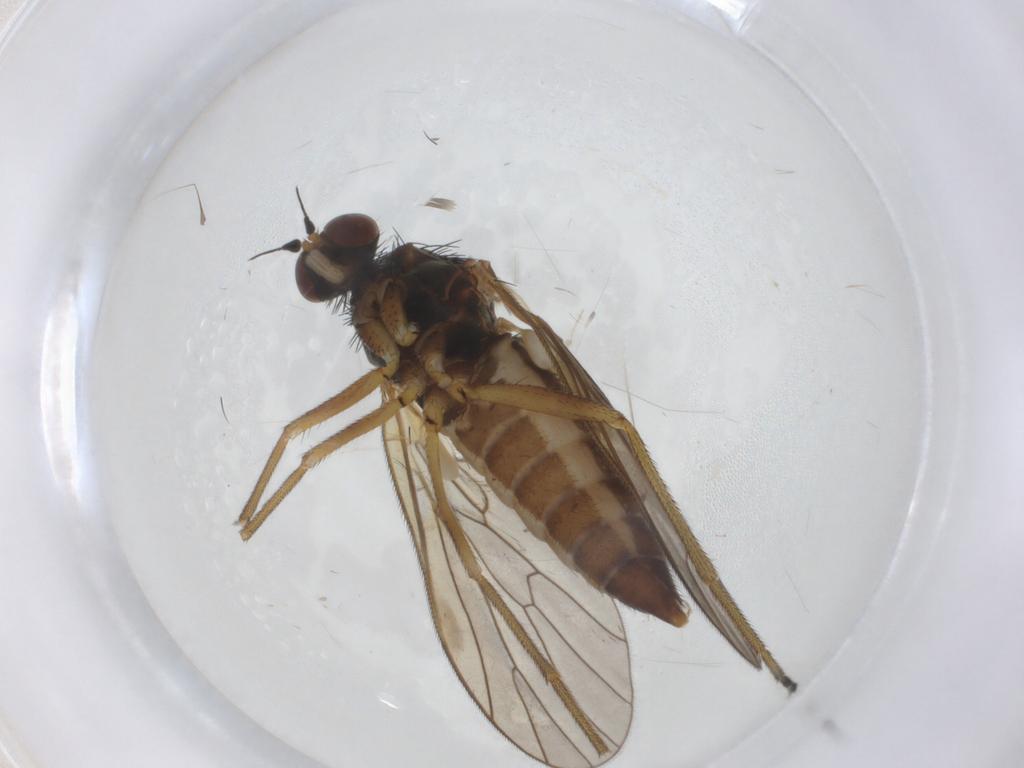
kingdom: Animalia
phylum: Arthropoda
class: Insecta
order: Diptera
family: Brachystomatidae
